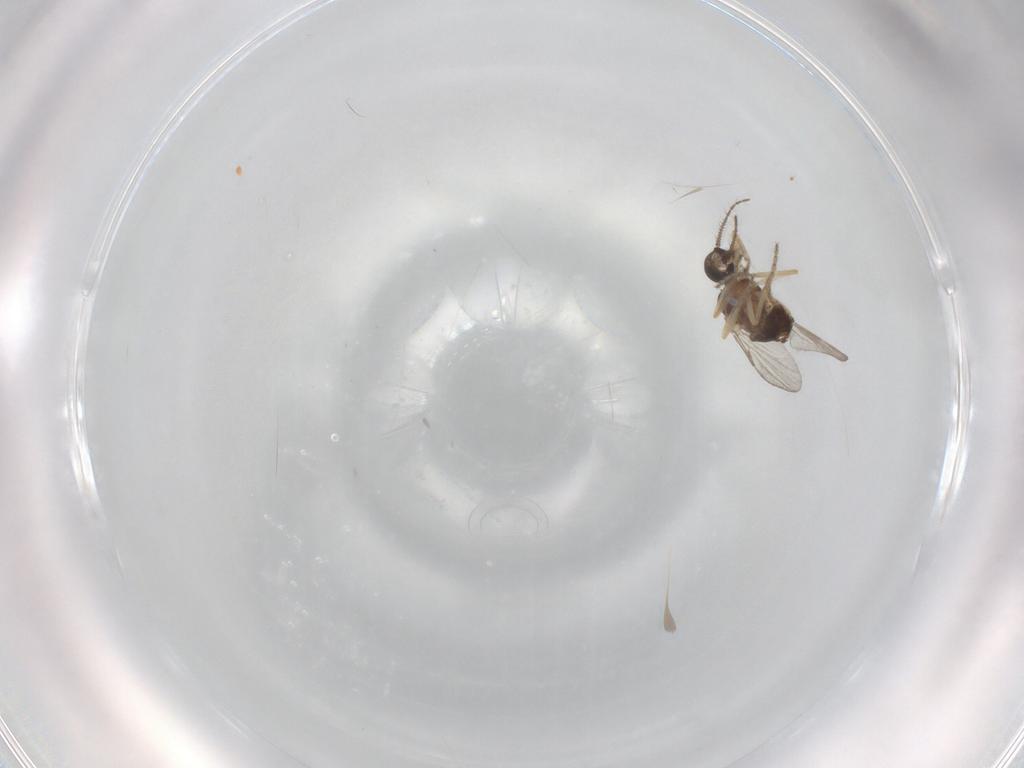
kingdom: Animalia
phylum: Arthropoda
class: Insecta
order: Diptera
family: Ceratopogonidae
